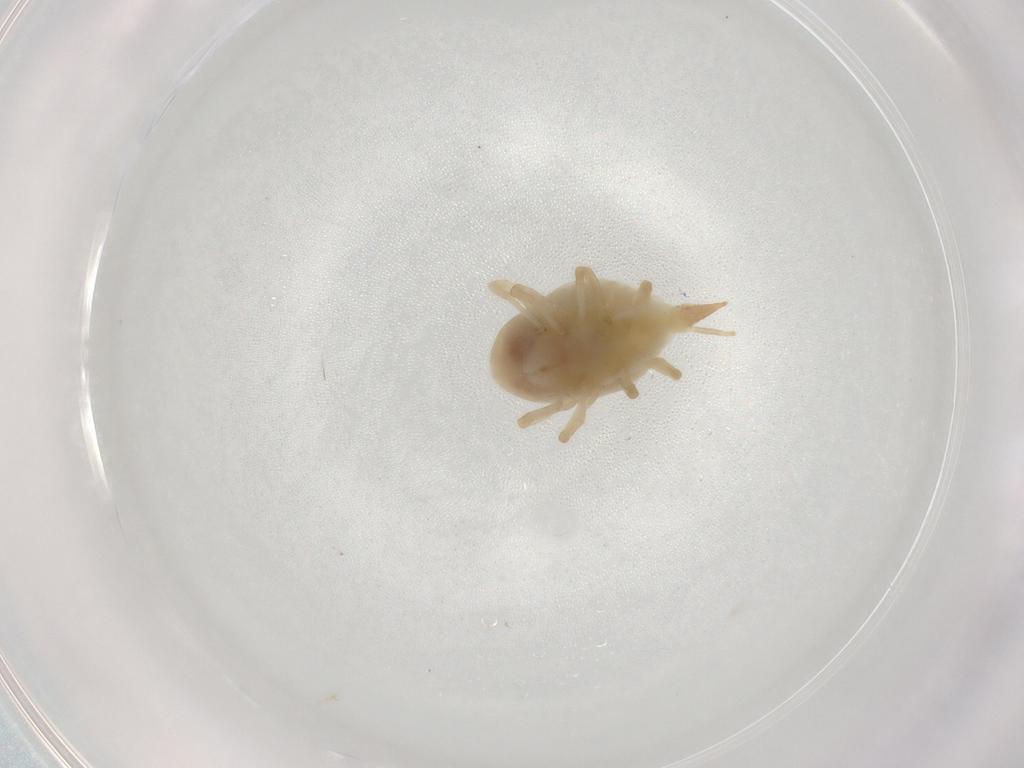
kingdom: Animalia
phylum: Arthropoda
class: Arachnida
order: Trombidiformes
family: Bdellidae
